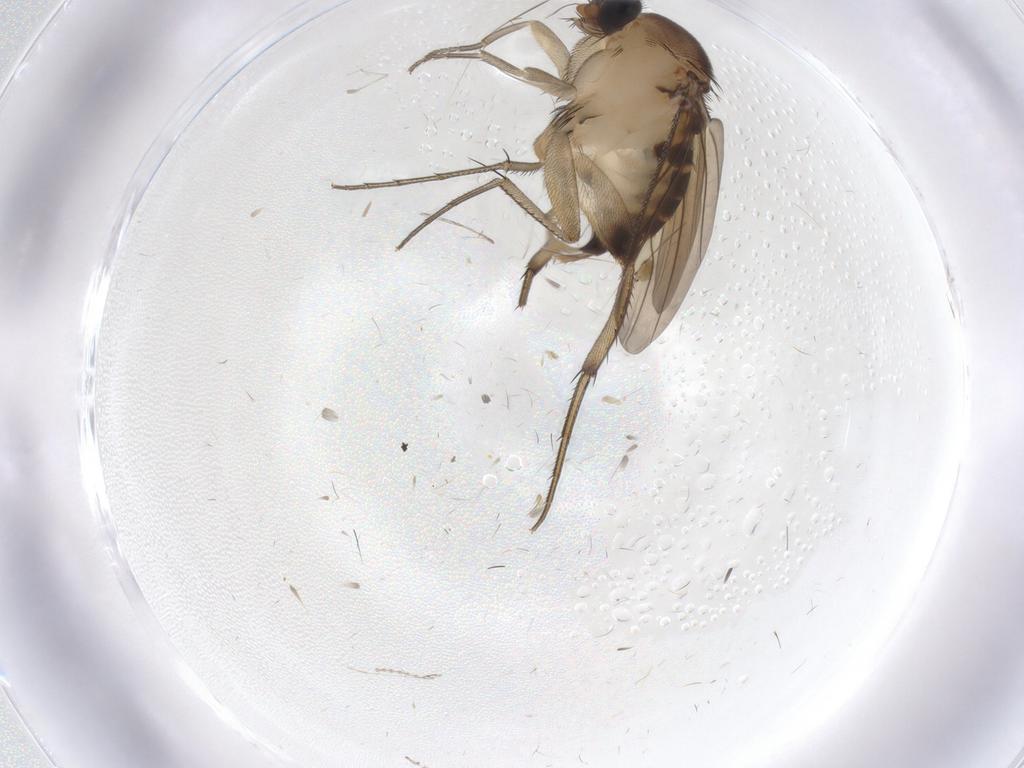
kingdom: Animalia
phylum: Arthropoda
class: Insecta
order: Diptera
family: Phoridae
